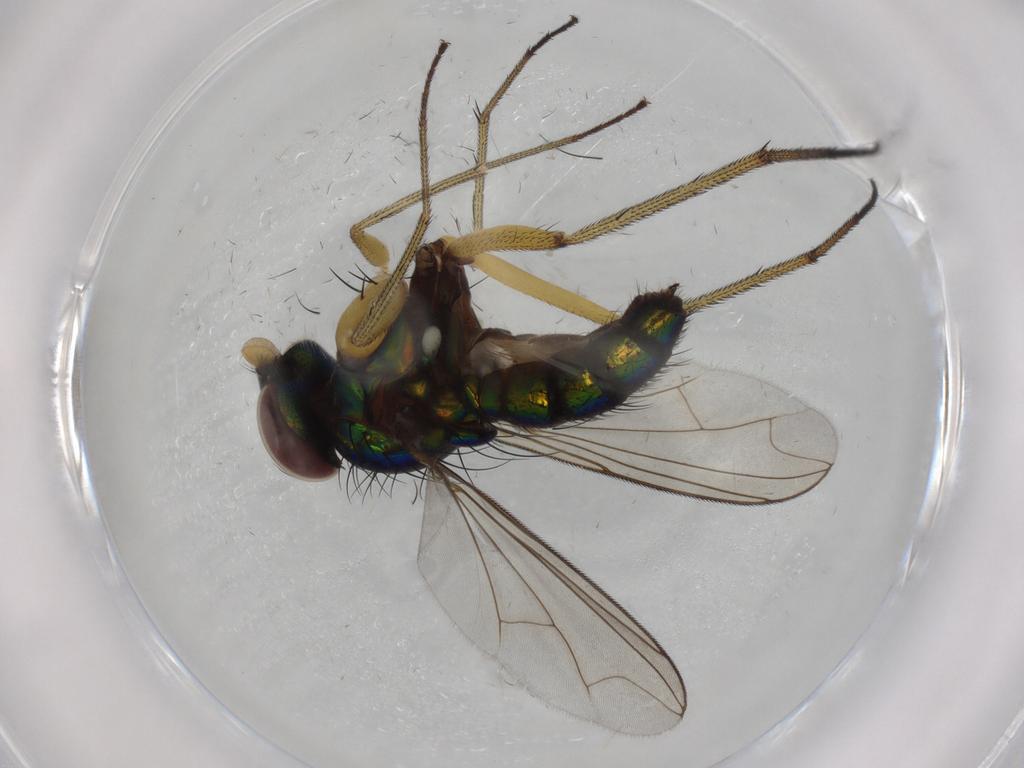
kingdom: Animalia
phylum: Arthropoda
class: Insecta
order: Diptera
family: Dolichopodidae
